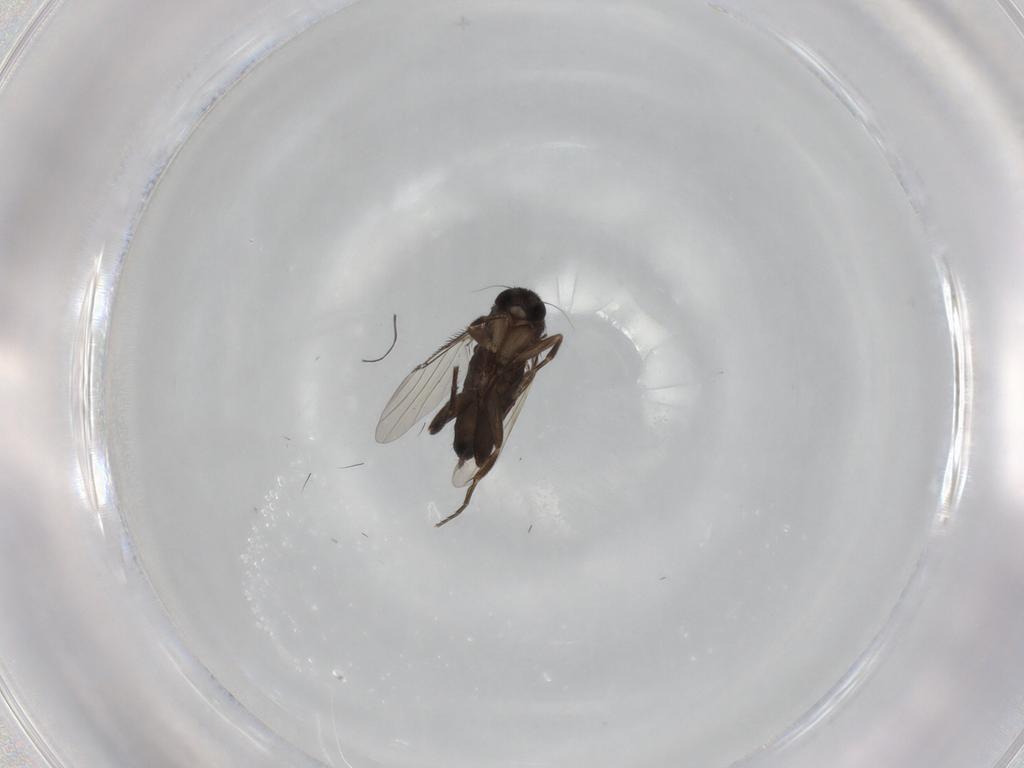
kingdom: Animalia
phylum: Arthropoda
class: Insecta
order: Diptera
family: Phoridae
